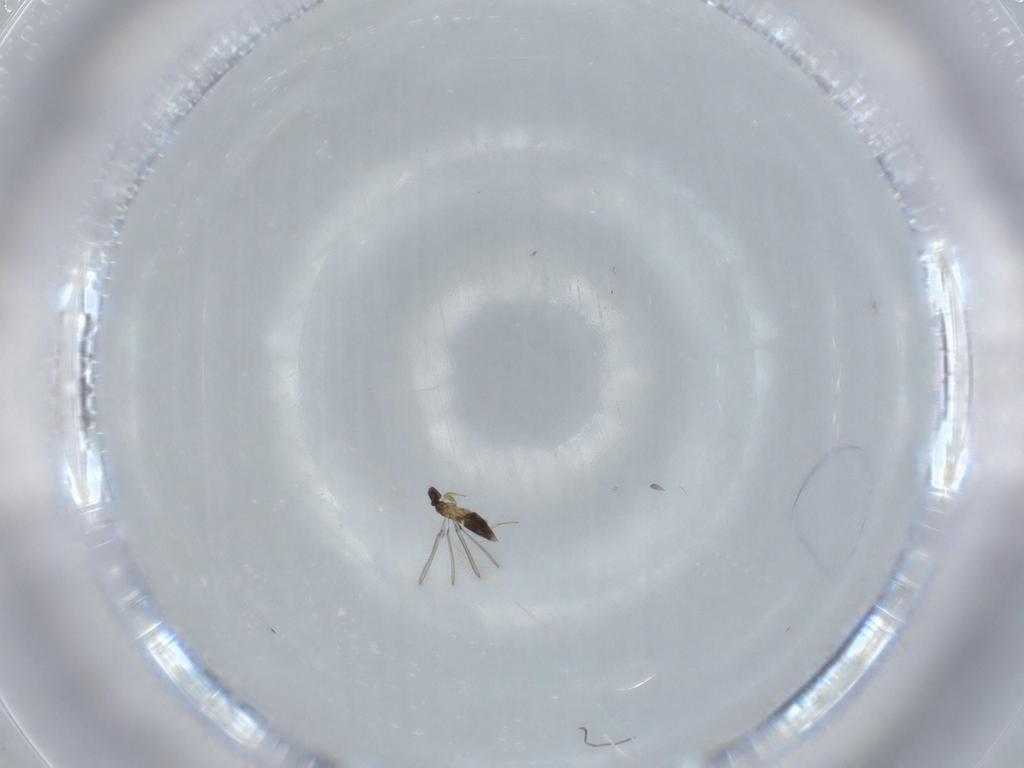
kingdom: Animalia
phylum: Arthropoda
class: Insecta
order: Hymenoptera
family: Mymaridae
